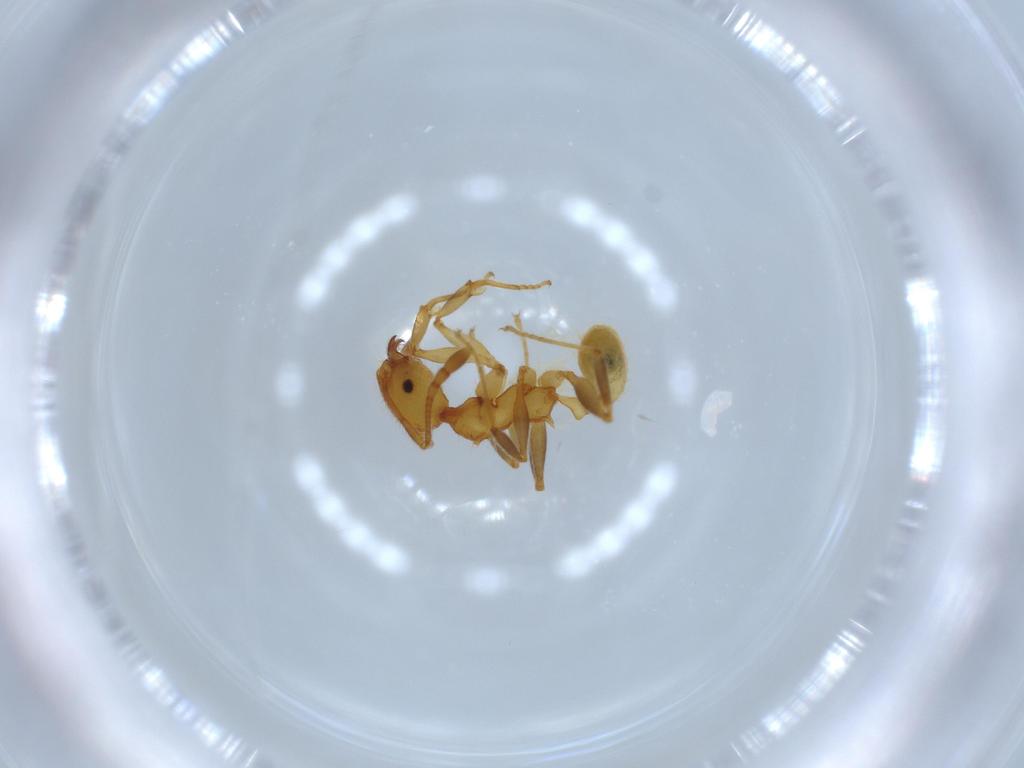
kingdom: Animalia
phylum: Arthropoda
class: Insecta
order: Hymenoptera
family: Formicidae
